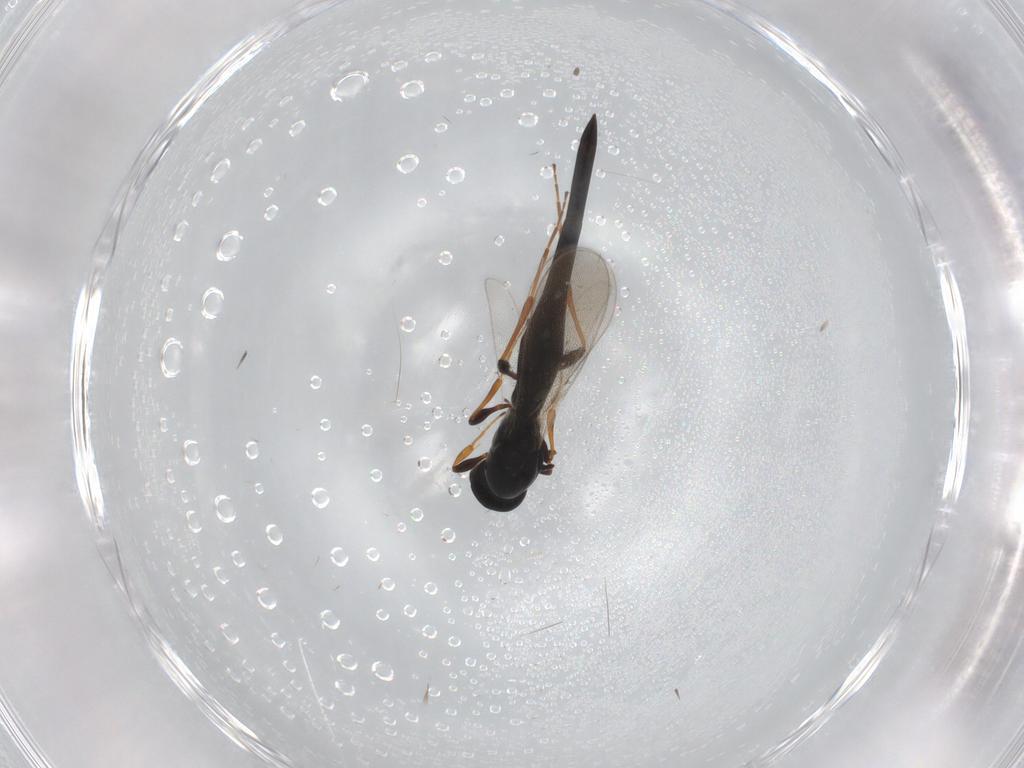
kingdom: Animalia
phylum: Arthropoda
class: Insecta
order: Hymenoptera
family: Platygastridae
